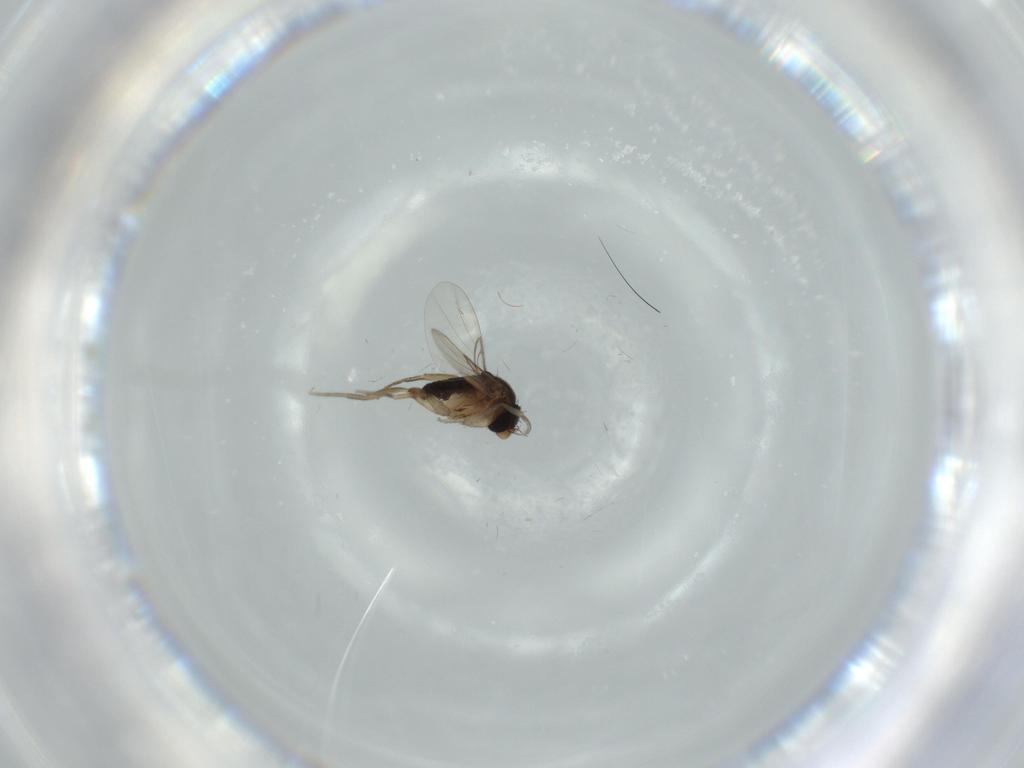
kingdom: Animalia
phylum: Arthropoda
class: Insecta
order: Diptera
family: Phoridae
